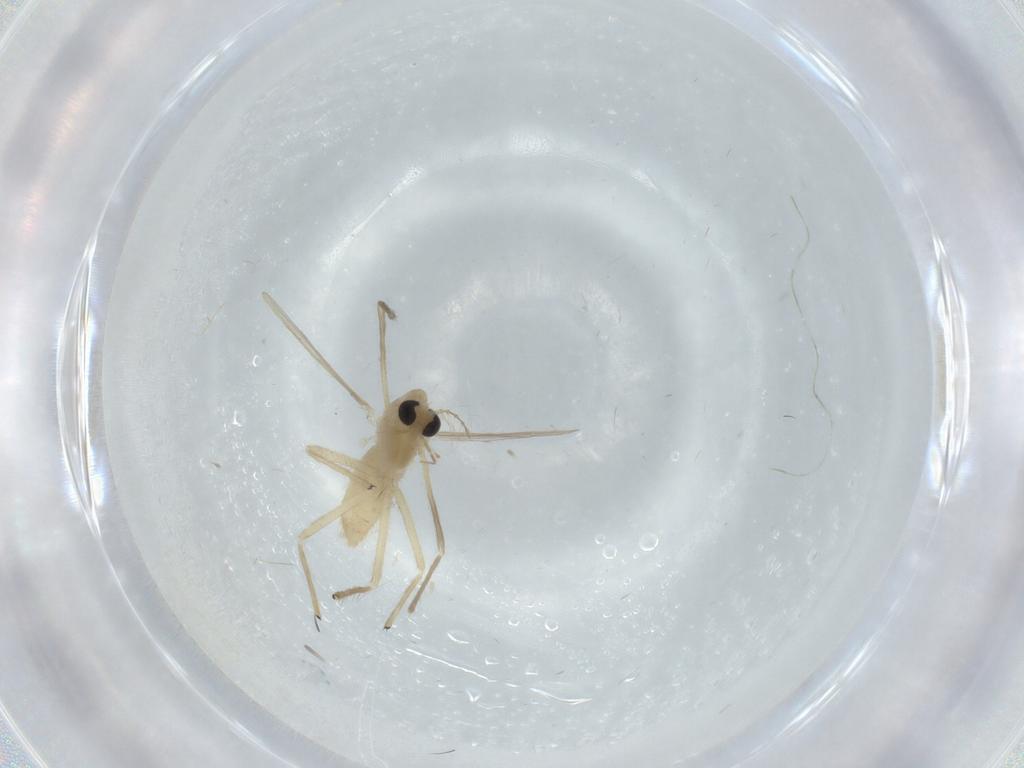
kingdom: Animalia
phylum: Arthropoda
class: Insecta
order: Diptera
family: Chironomidae
